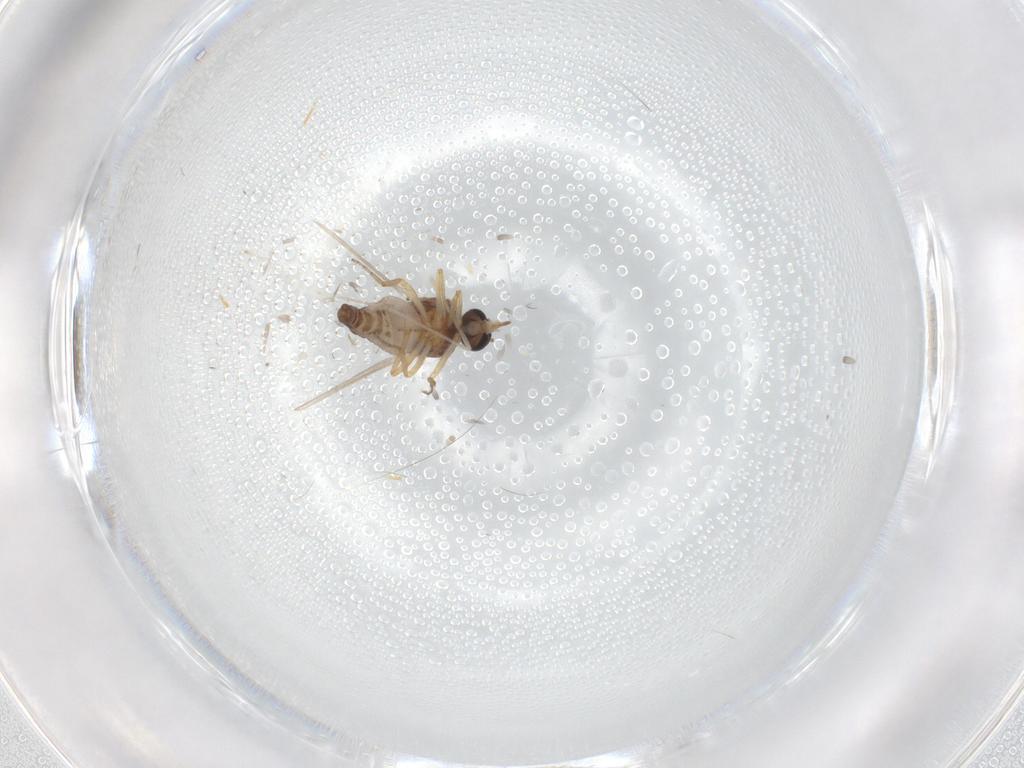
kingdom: Animalia
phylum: Arthropoda
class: Insecta
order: Diptera
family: Ceratopogonidae
